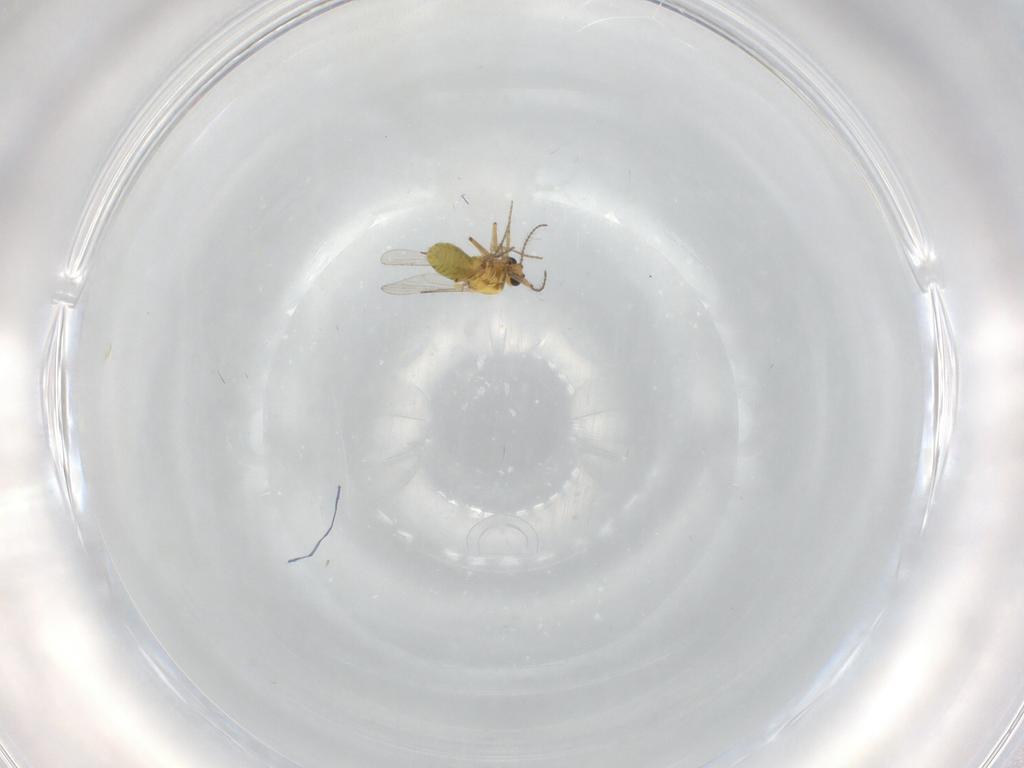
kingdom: Animalia
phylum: Arthropoda
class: Insecta
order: Diptera
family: Ceratopogonidae
